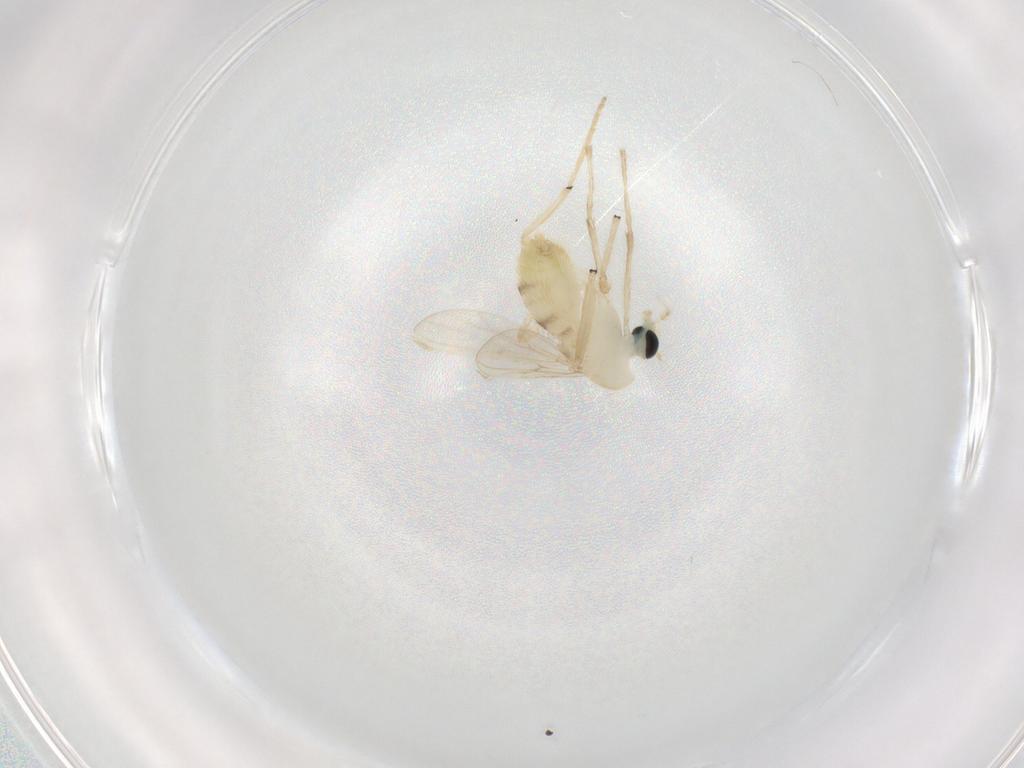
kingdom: Animalia
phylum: Arthropoda
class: Insecta
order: Diptera
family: Chironomidae
